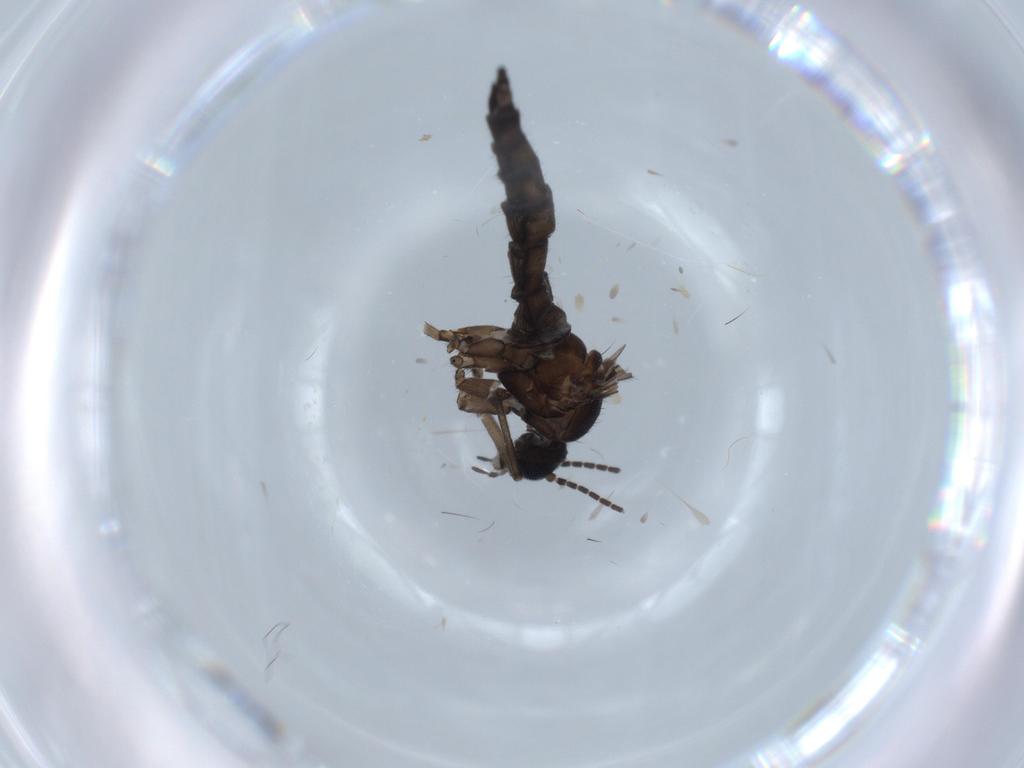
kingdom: Animalia
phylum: Arthropoda
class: Insecta
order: Diptera
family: Sciaridae
